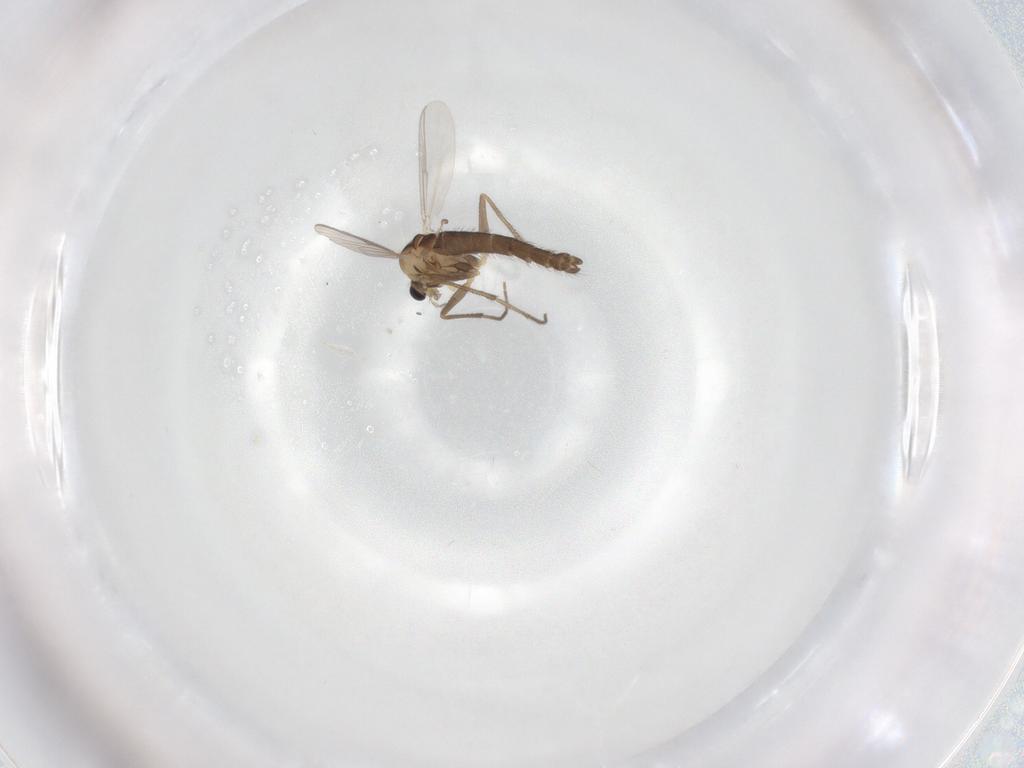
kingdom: Animalia
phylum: Arthropoda
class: Insecta
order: Diptera
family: Chironomidae
